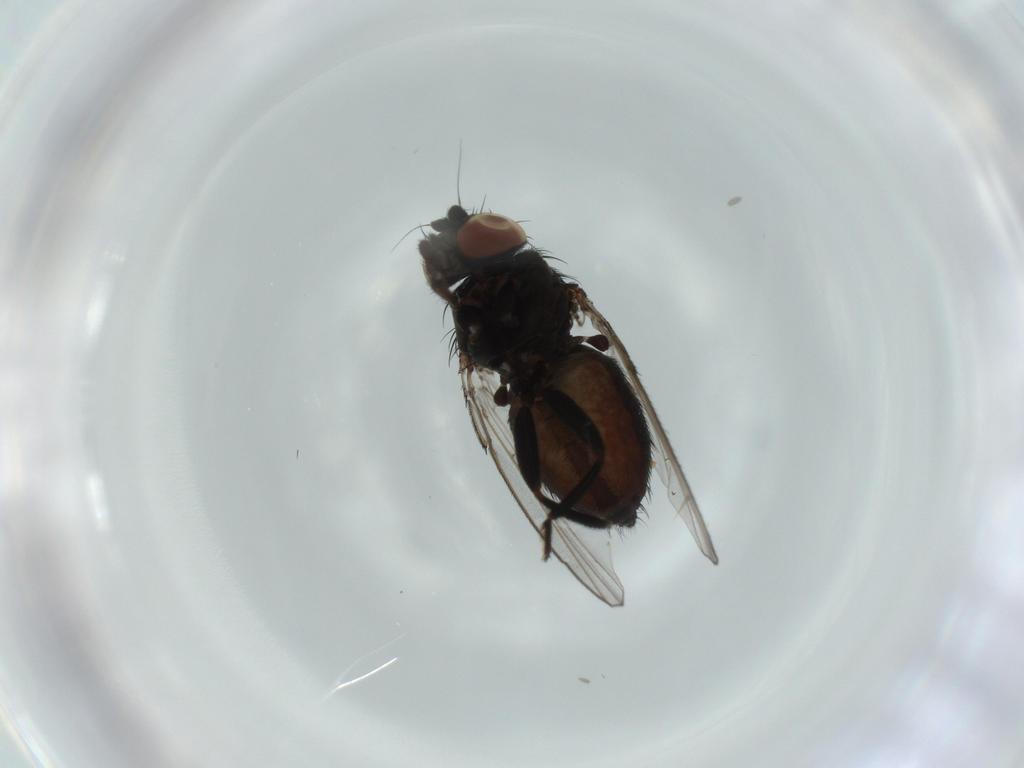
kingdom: Animalia
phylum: Arthropoda
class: Insecta
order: Diptera
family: Milichiidae
